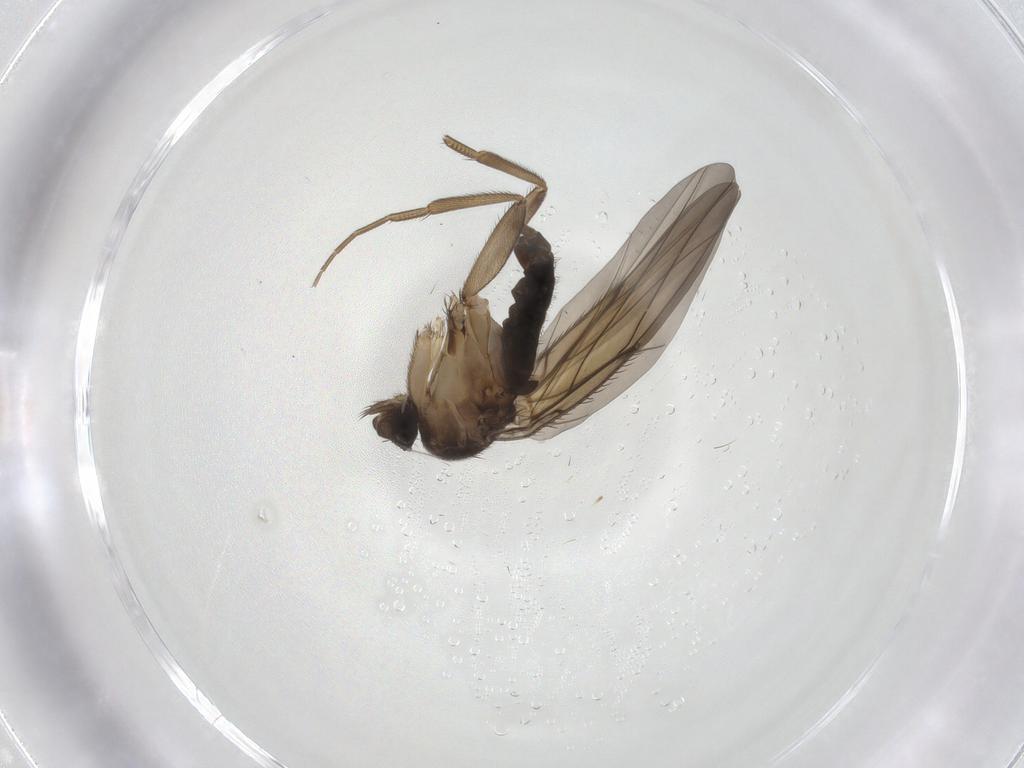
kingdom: Animalia
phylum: Arthropoda
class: Insecta
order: Diptera
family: Phoridae
